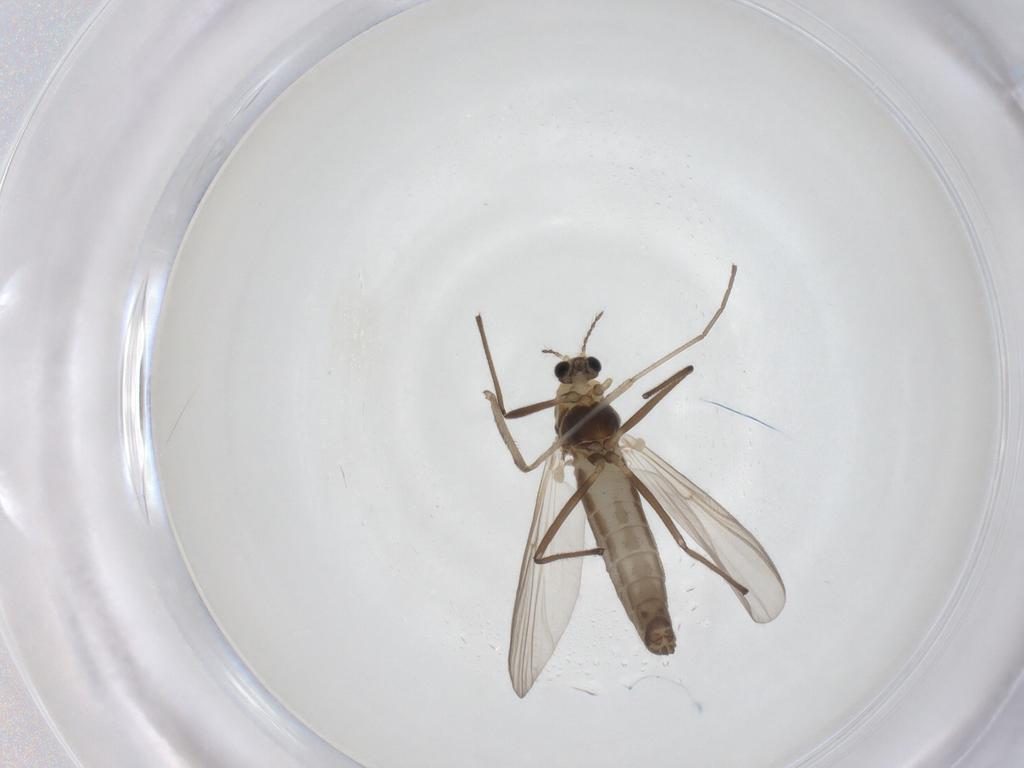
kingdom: Animalia
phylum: Arthropoda
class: Insecta
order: Diptera
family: Chironomidae
